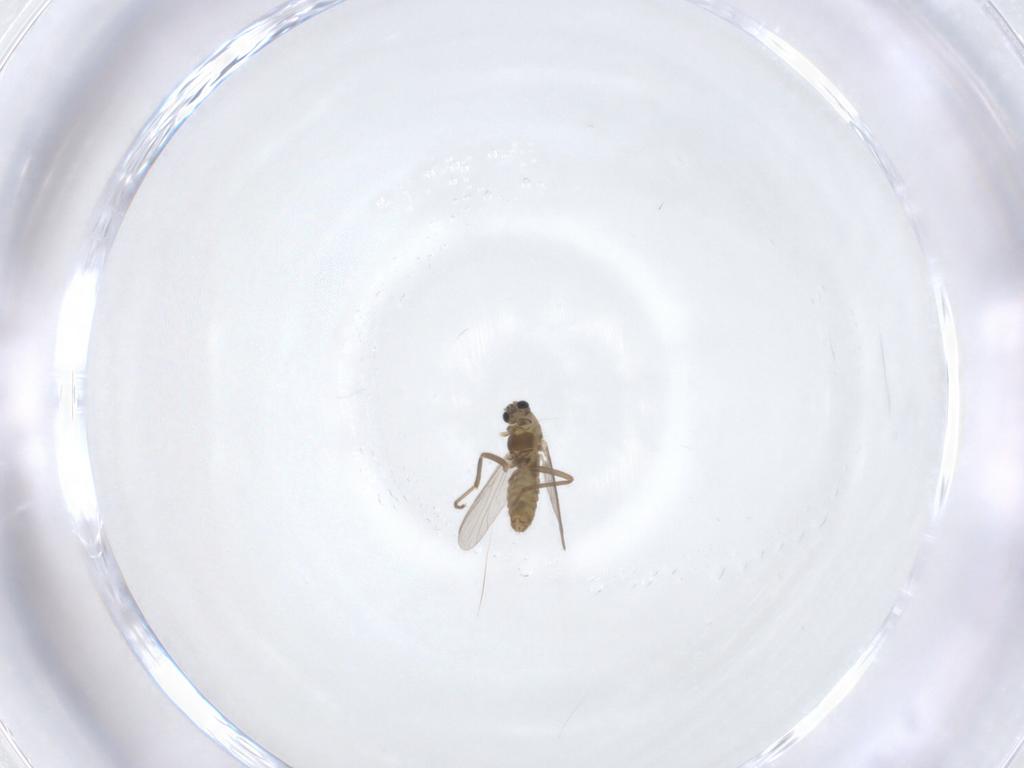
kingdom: Animalia
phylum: Arthropoda
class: Insecta
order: Diptera
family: Chironomidae
